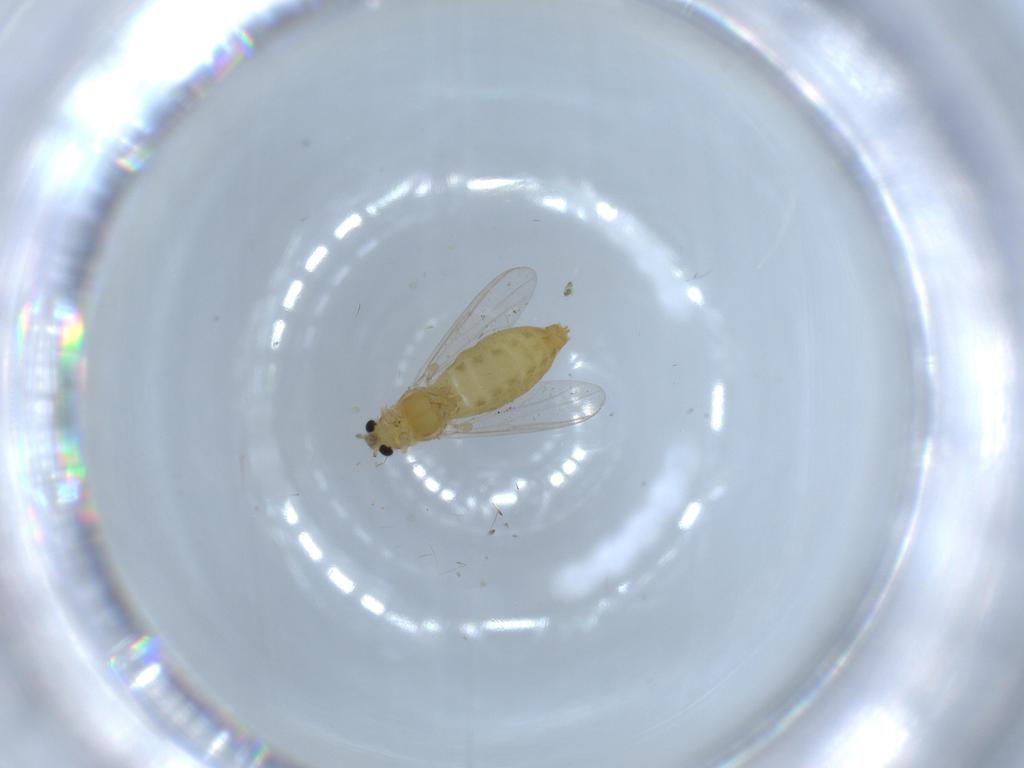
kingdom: Animalia
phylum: Arthropoda
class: Insecta
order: Diptera
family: Chironomidae
